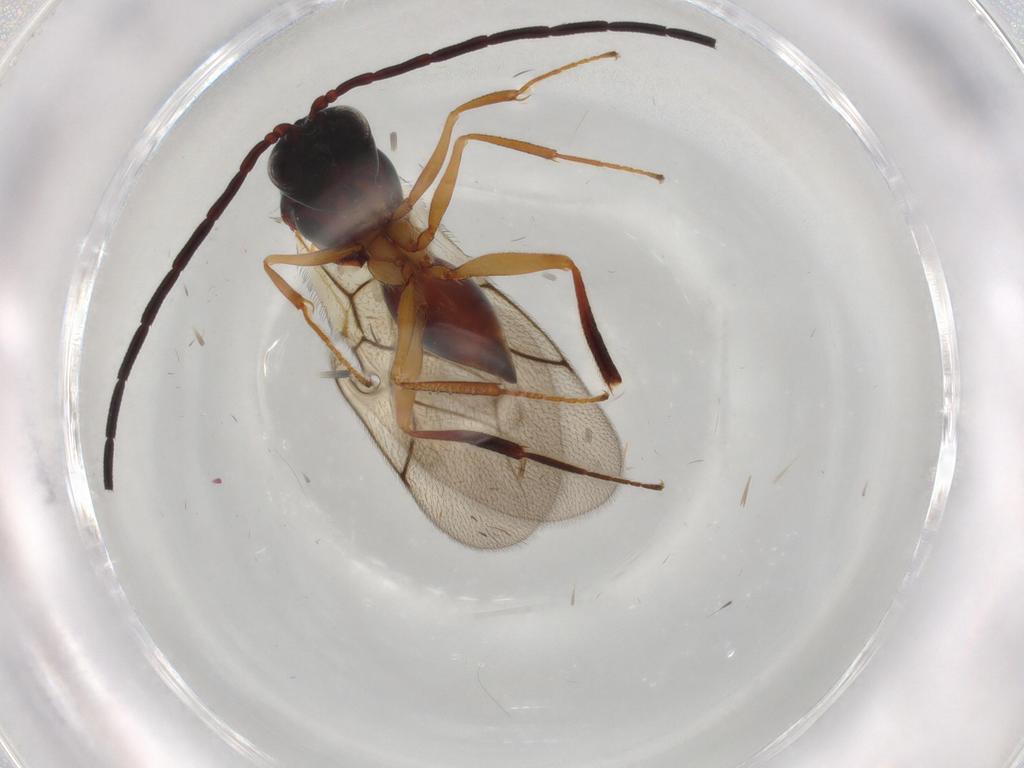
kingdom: Animalia
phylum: Arthropoda
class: Insecta
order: Hymenoptera
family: Figitidae
